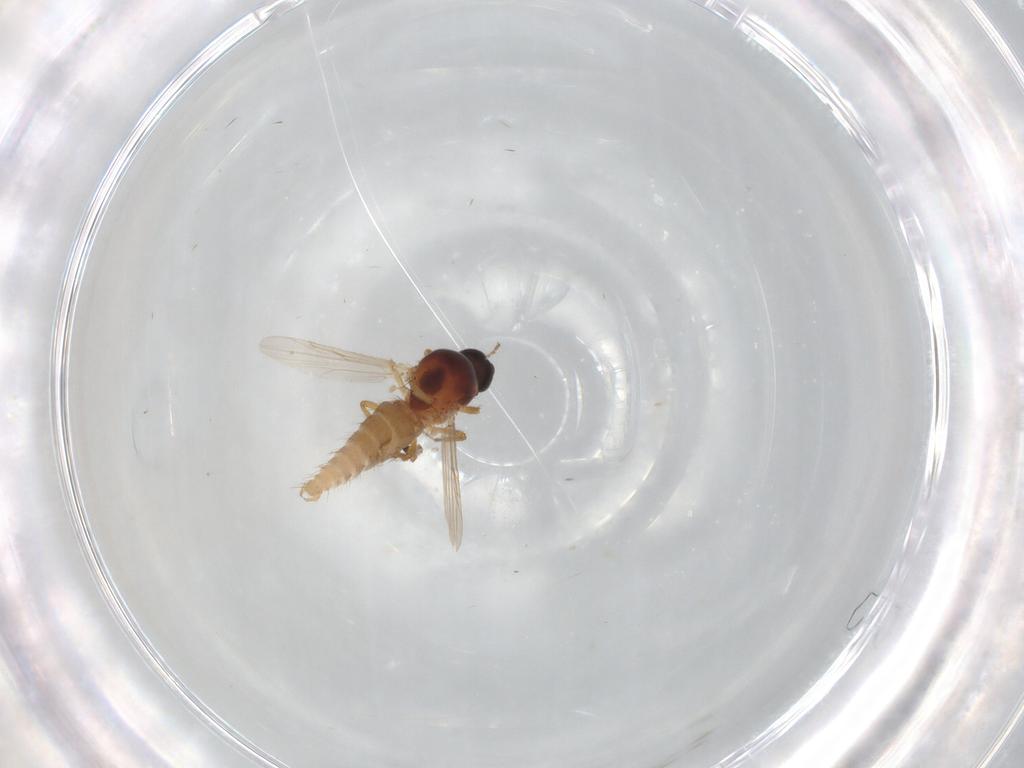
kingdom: Animalia
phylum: Arthropoda
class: Insecta
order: Diptera
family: Ceratopogonidae
